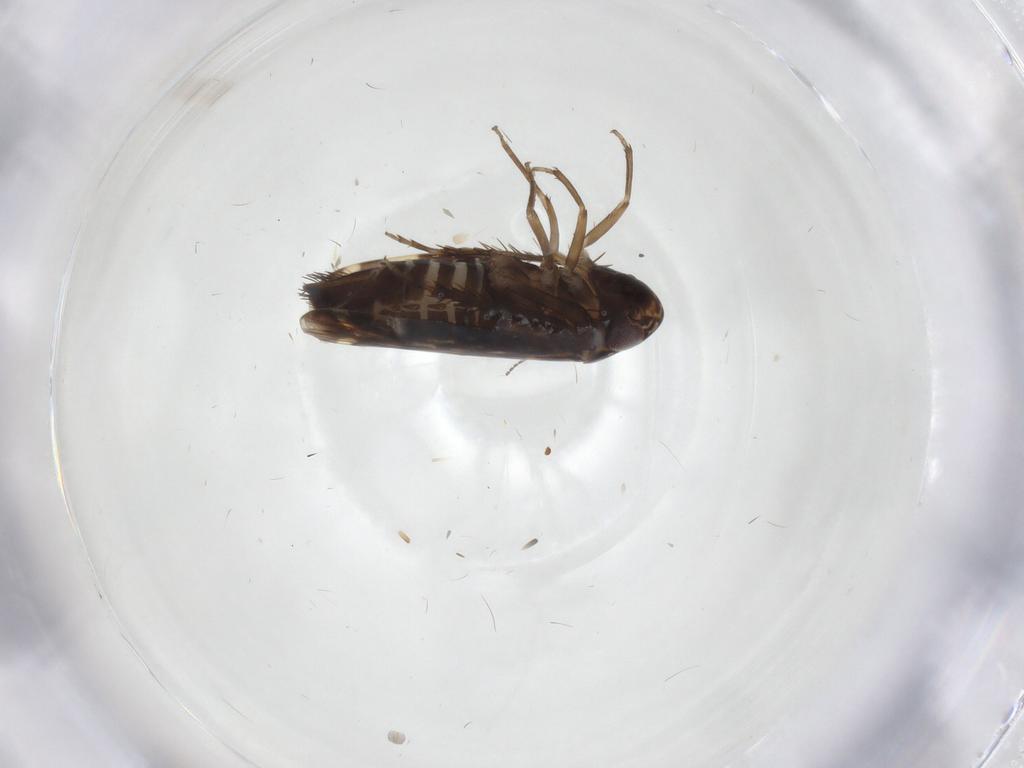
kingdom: Animalia
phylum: Arthropoda
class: Insecta
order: Hemiptera
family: Cicadellidae
